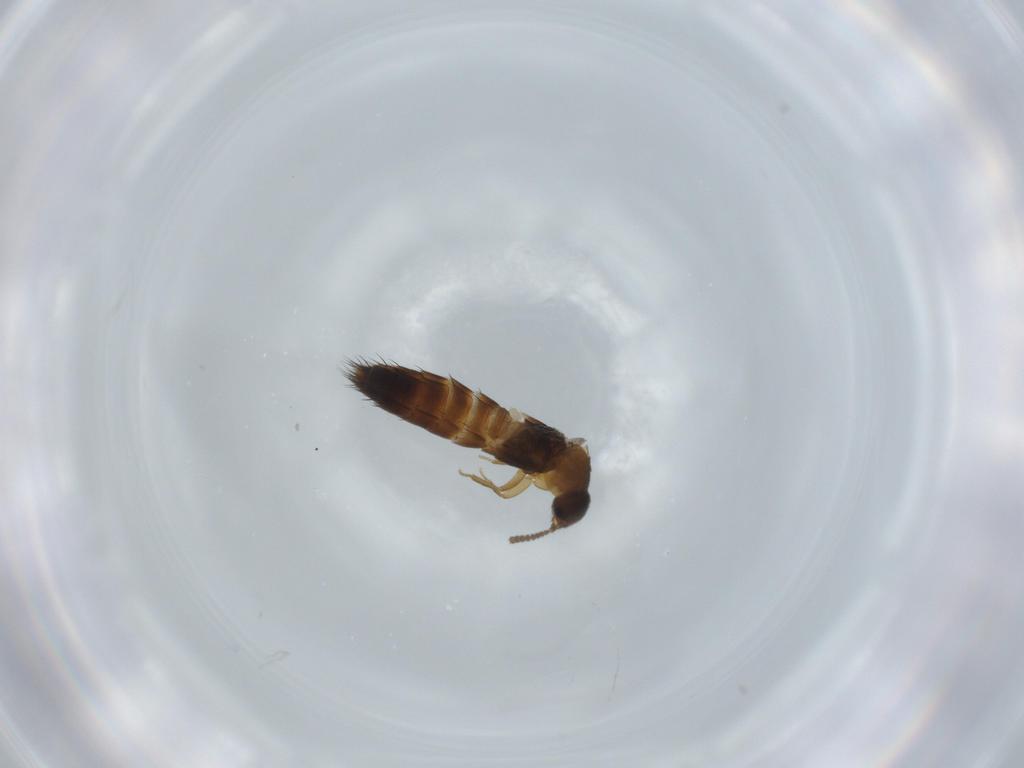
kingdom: Animalia
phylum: Arthropoda
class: Insecta
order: Coleoptera
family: Staphylinidae
